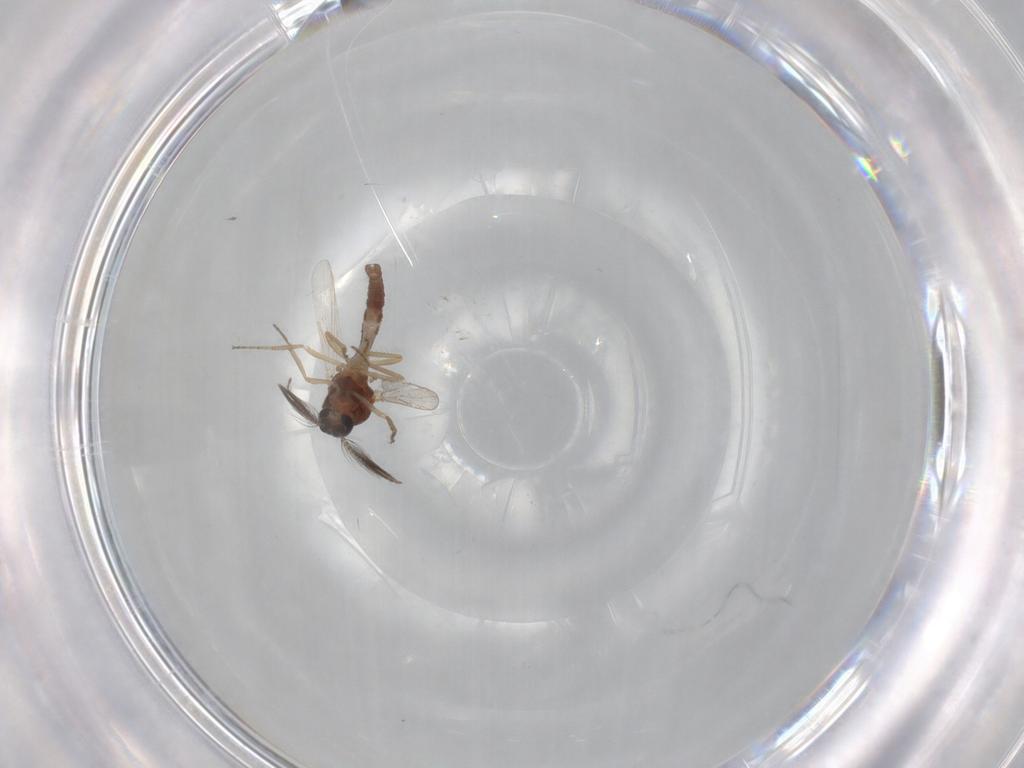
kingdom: Animalia
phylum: Arthropoda
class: Insecta
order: Diptera
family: Ceratopogonidae
